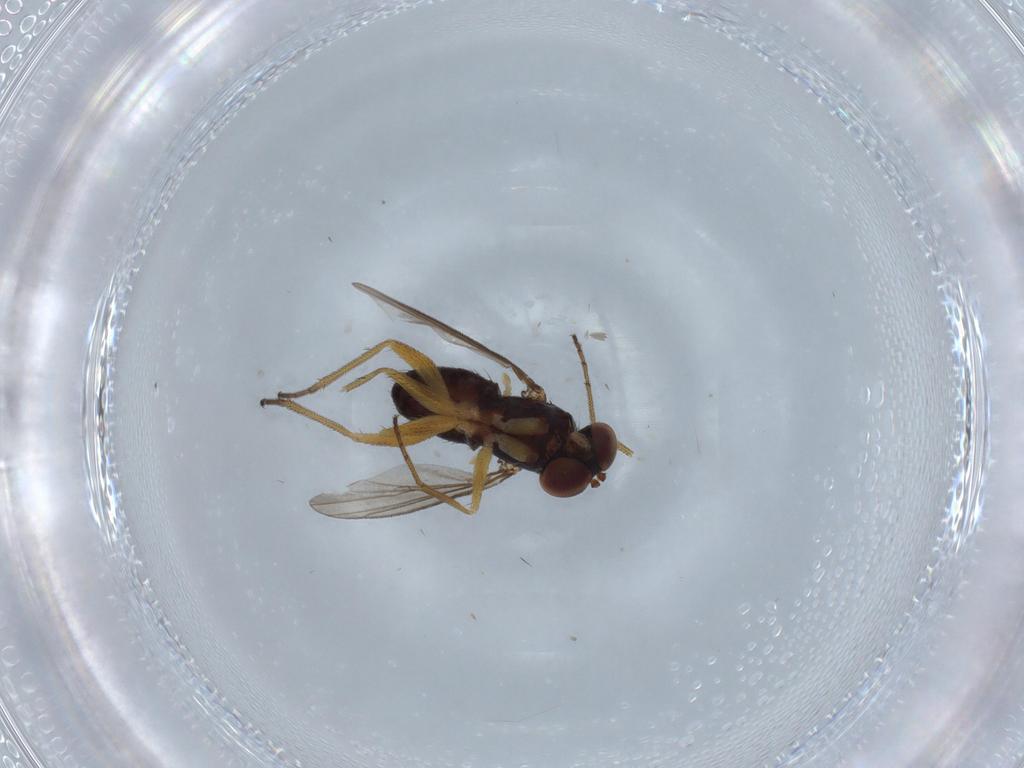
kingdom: Animalia
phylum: Arthropoda
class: Insecta
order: Diptera
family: Dolichopodidae
